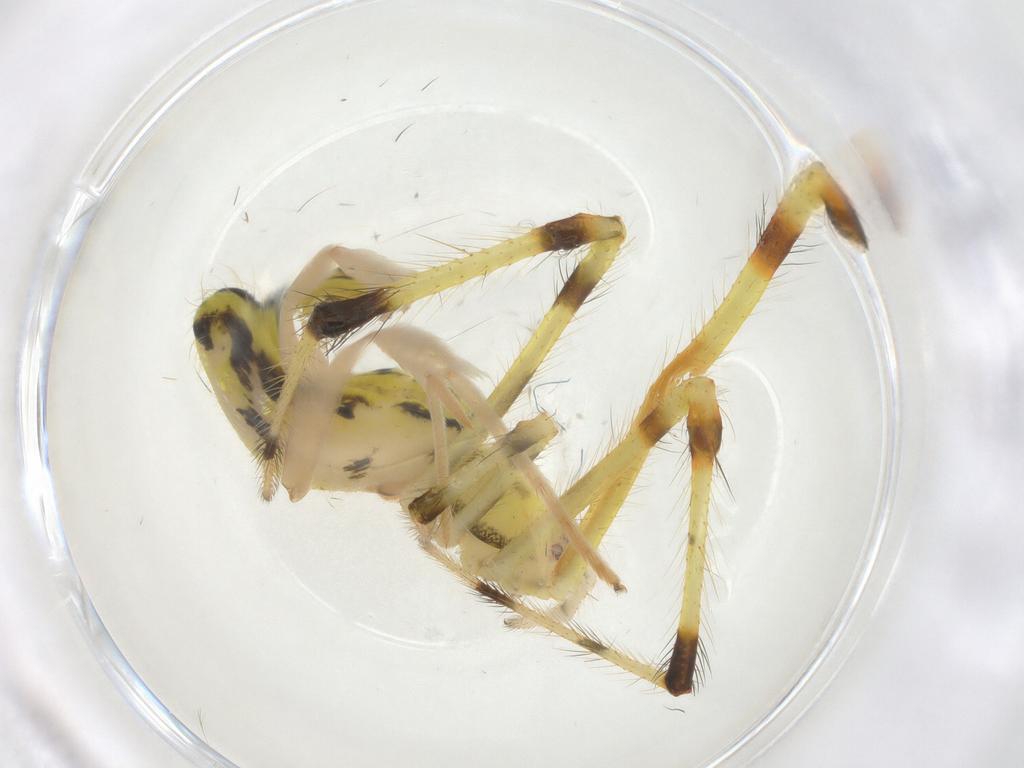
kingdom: Animalia
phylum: Arthropoda
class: Arachnida
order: Araneae
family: Theridiidae
